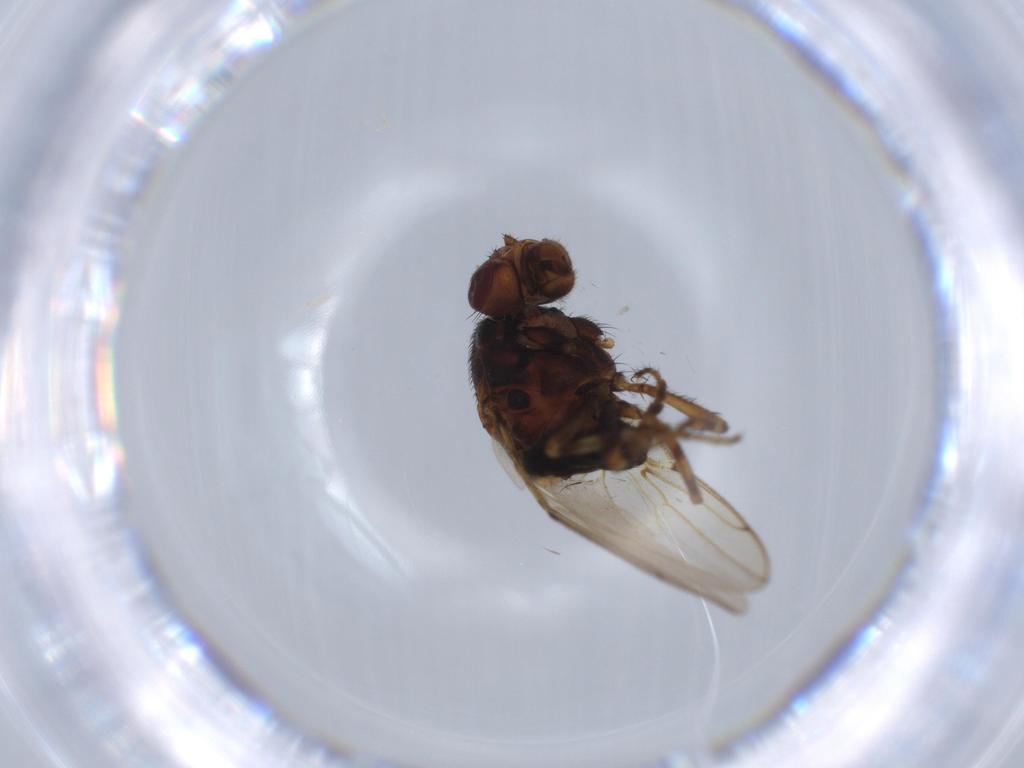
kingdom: Animalia
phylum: Arthropoda
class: Insecta
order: Diptera
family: Sphaeroceridae
